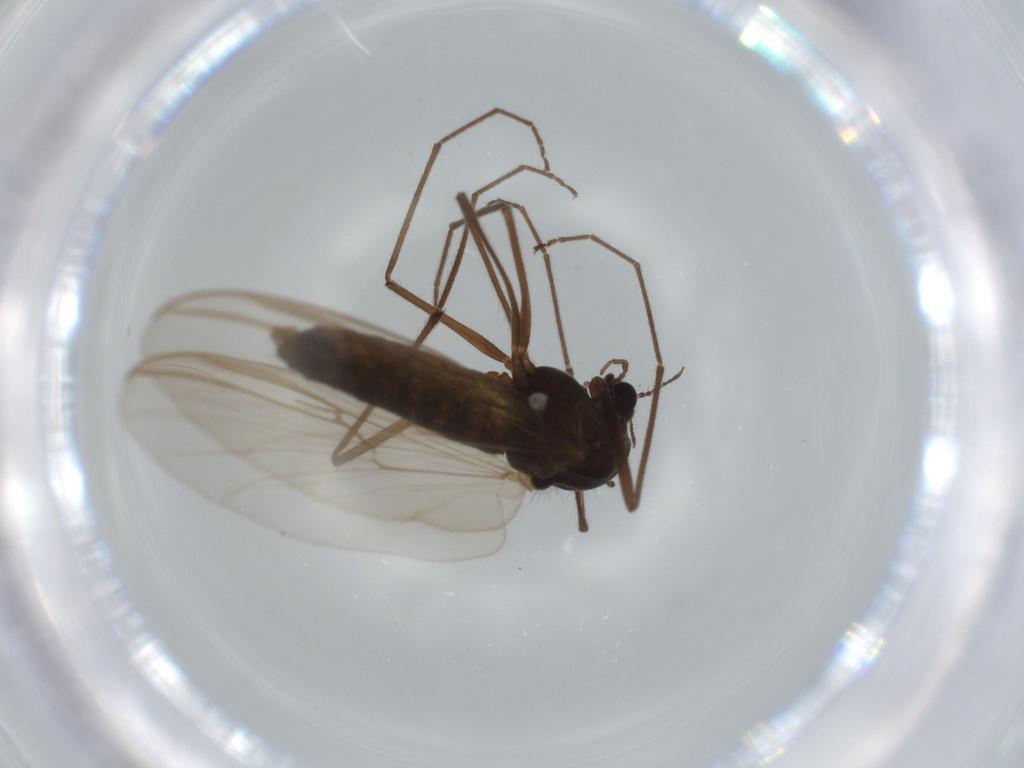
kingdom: Animalia
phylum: Arthropoda
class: Insecta
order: Diptera
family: Chironomidae
